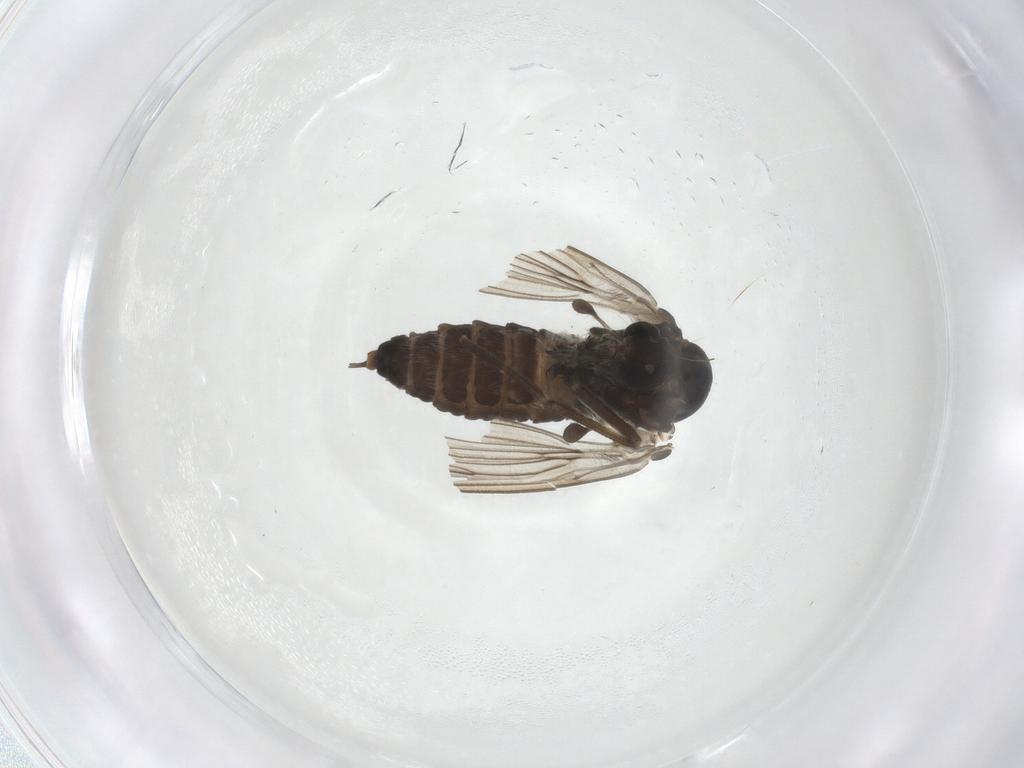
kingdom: Animalia
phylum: Arthropoda
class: Insecta
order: Diptera
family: Psychodidae
